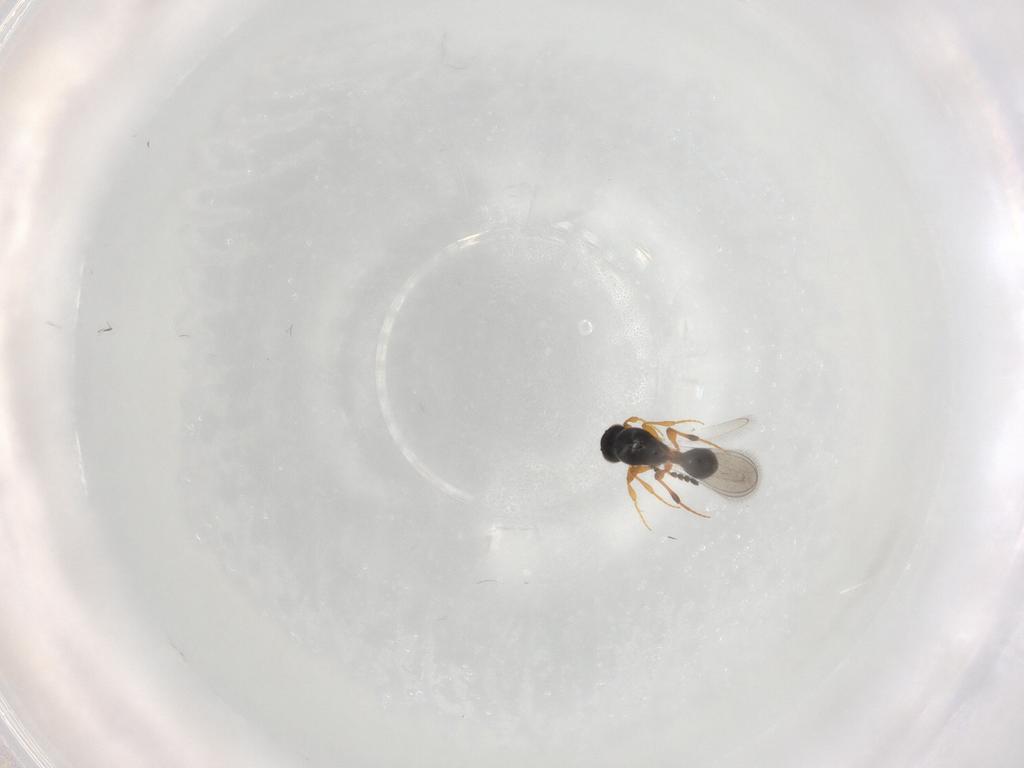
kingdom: Animalia
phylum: Arthropoda
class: Insecta
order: Hymenoptera
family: Platygastridae
